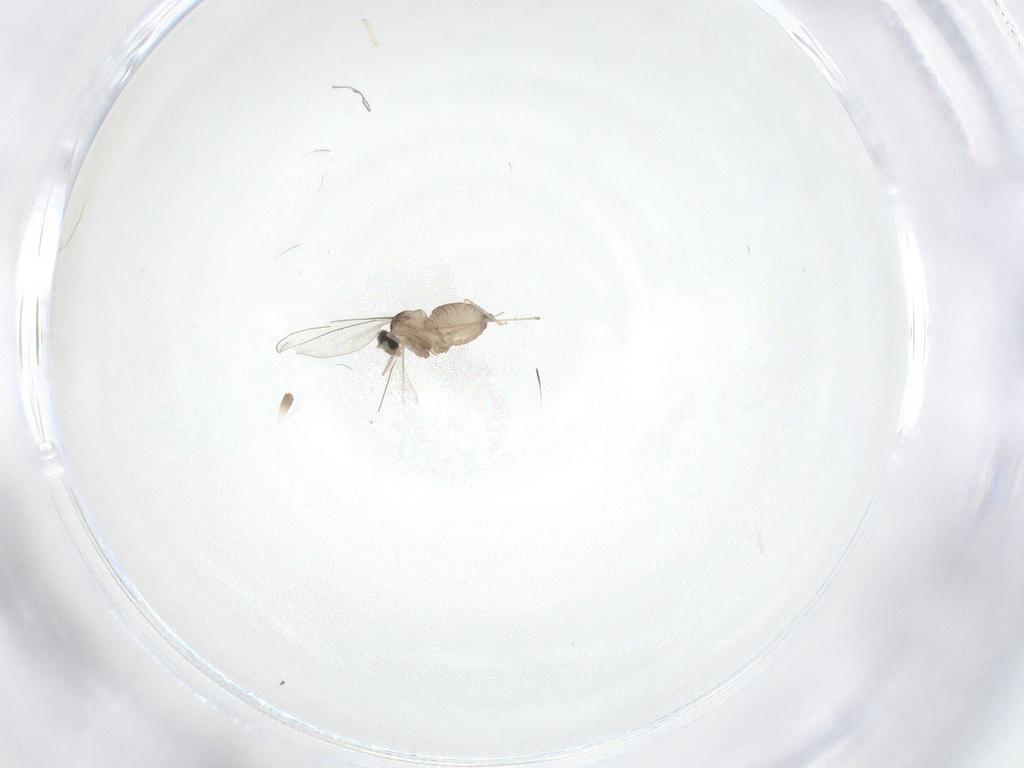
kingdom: Animalia
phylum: Arthropoda
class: Insecta
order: Diptera
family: Cecidomyiidae
